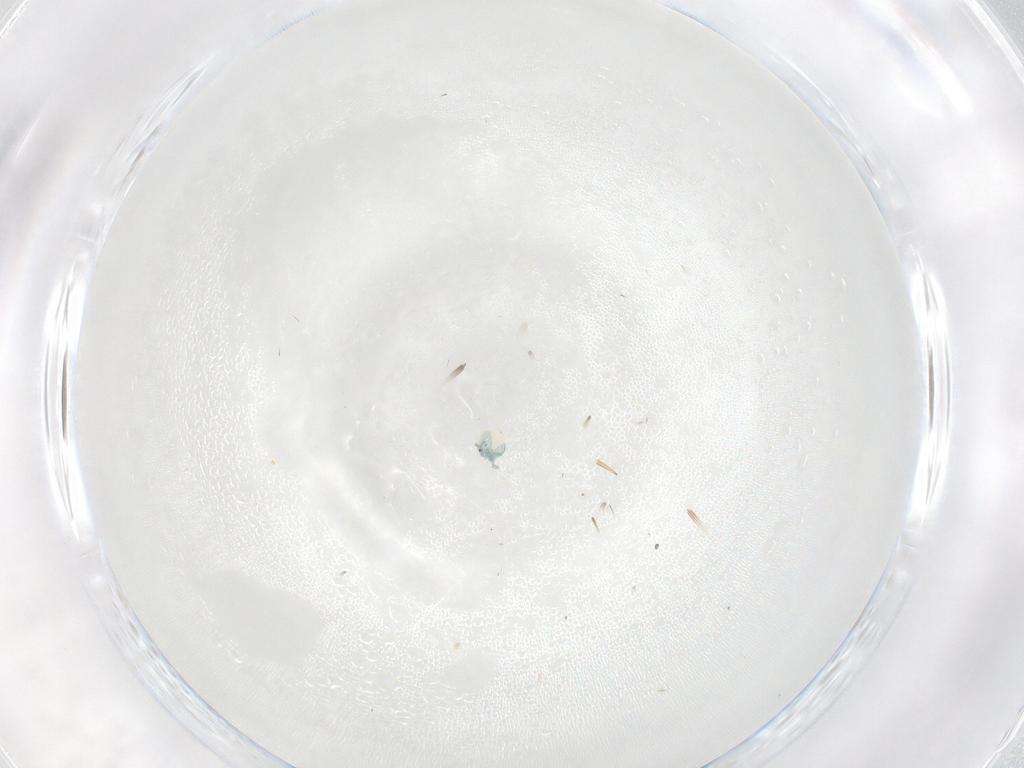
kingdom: Animalia
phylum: Arthropoda
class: Arachnida
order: Trombidiformes
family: Arrenuridae
